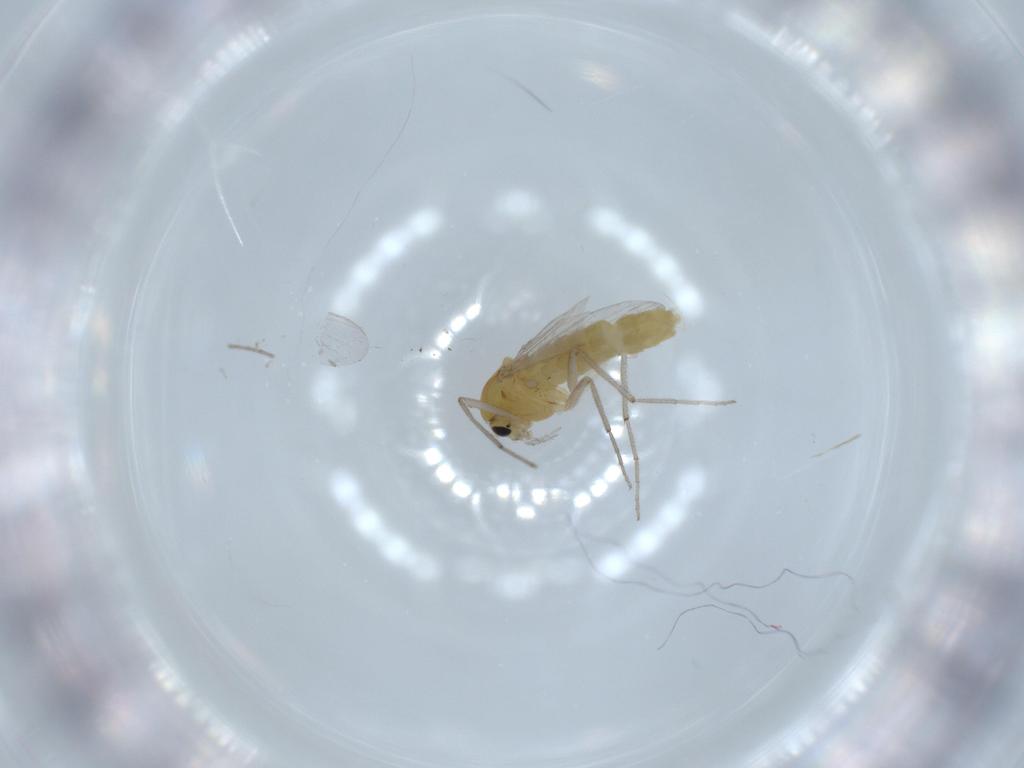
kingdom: Animalia
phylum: Arthropoda
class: Insecta
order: Diptera
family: Chironomidae
